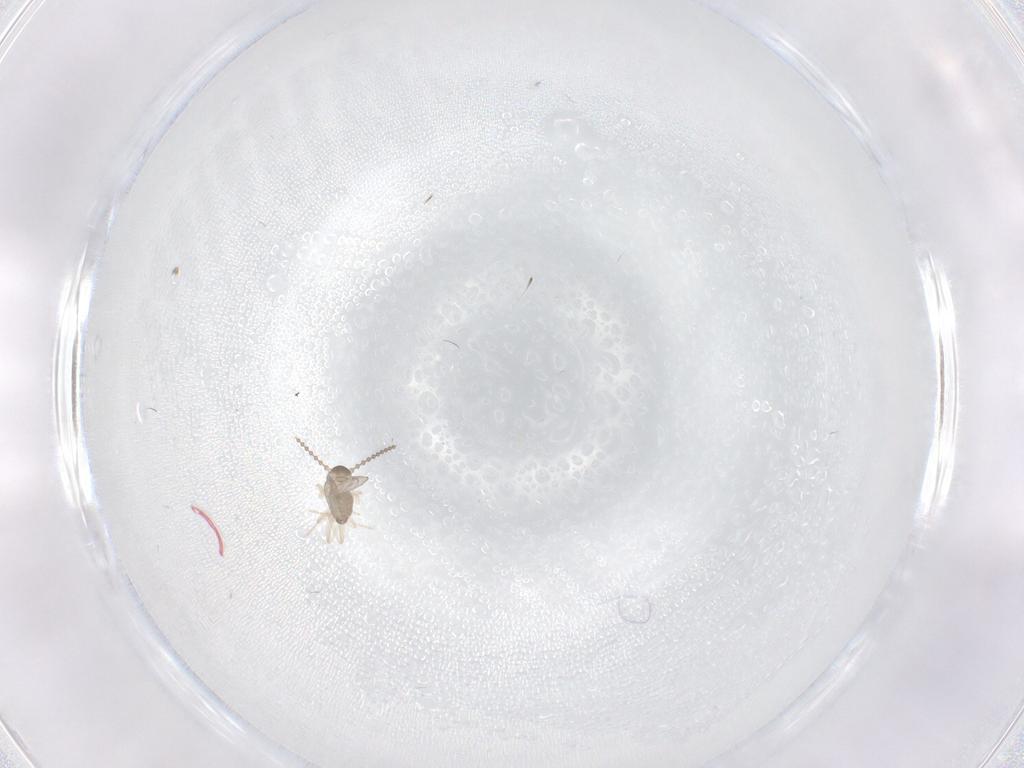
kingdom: Animalia
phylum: Arthropoda
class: Insecta
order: Diptera
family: Cecidomyiidae
